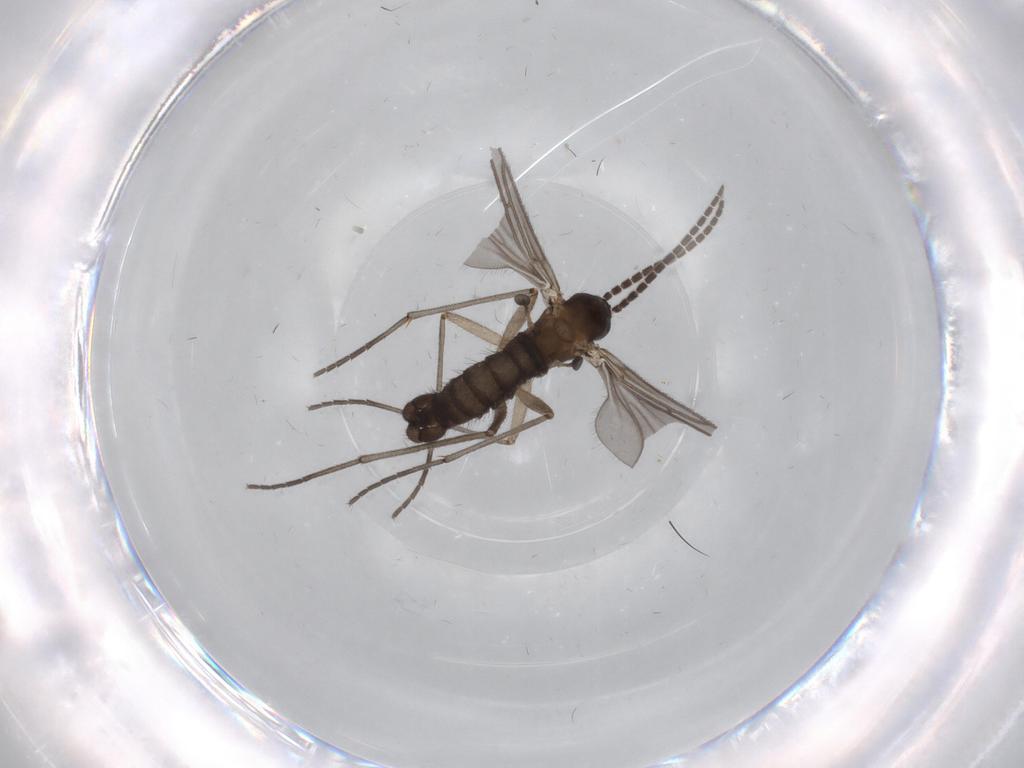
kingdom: Animalia
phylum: Arthropoda
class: Insecta
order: Diptera
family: Sciaridae
